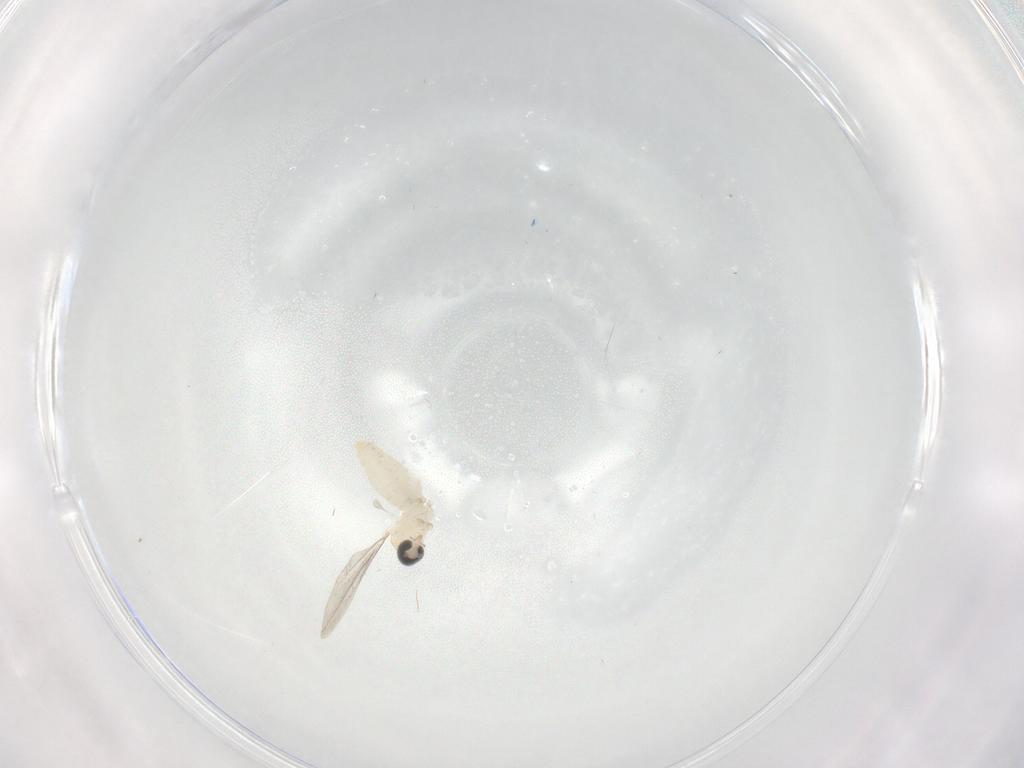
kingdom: Animalia
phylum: Arthropoda
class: Insecta
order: Diptera
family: Cecidomyiidae
